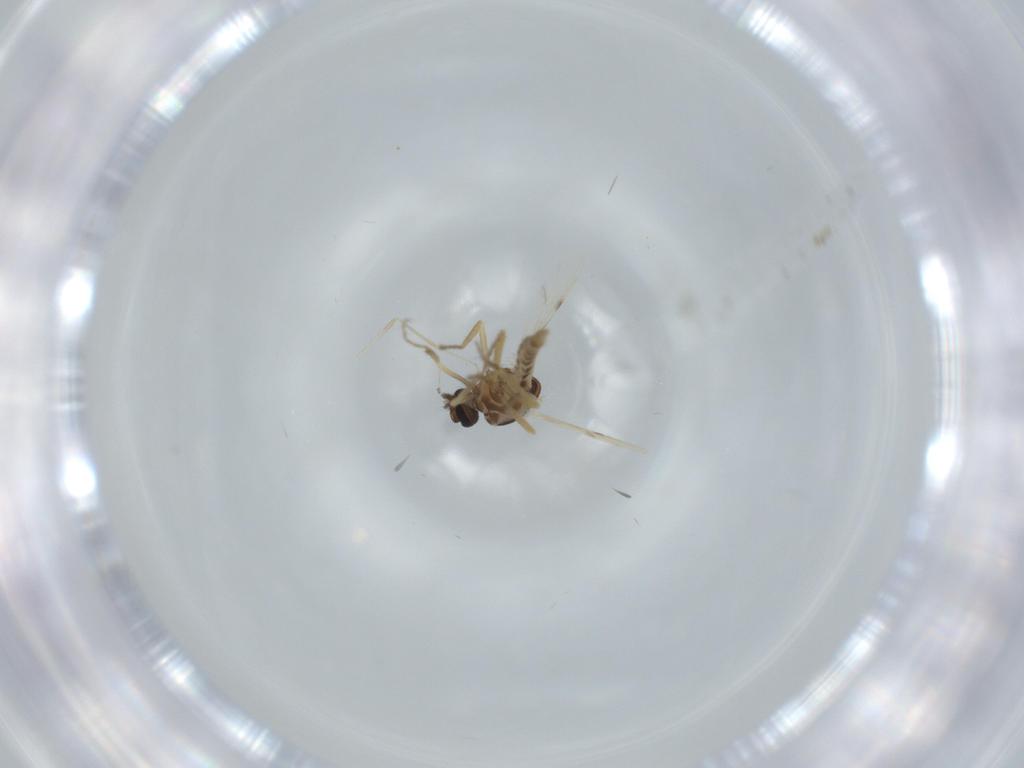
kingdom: Animalia
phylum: Arthropoda
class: Insecta
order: Diptera
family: Ceratopogonidae
